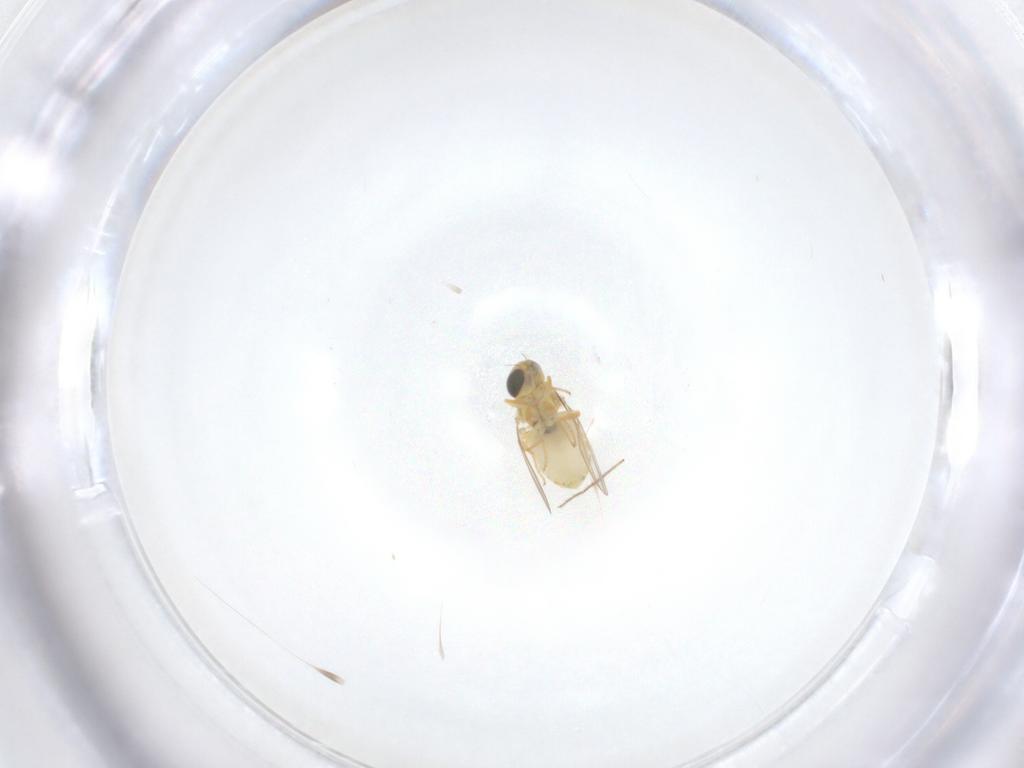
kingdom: Animalia
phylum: Arthropoda
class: Insecta
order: Diptera
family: Chyromyidae
